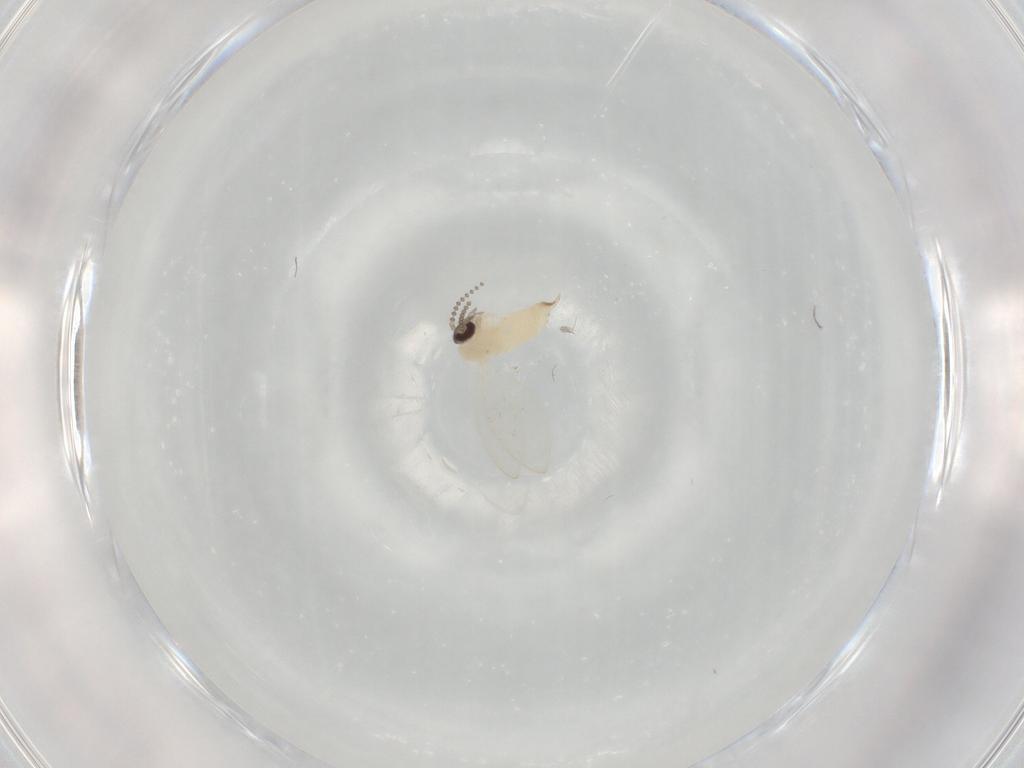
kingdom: Animalia
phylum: Arthropoda
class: Insecta
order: Diptera
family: Psychodidae
